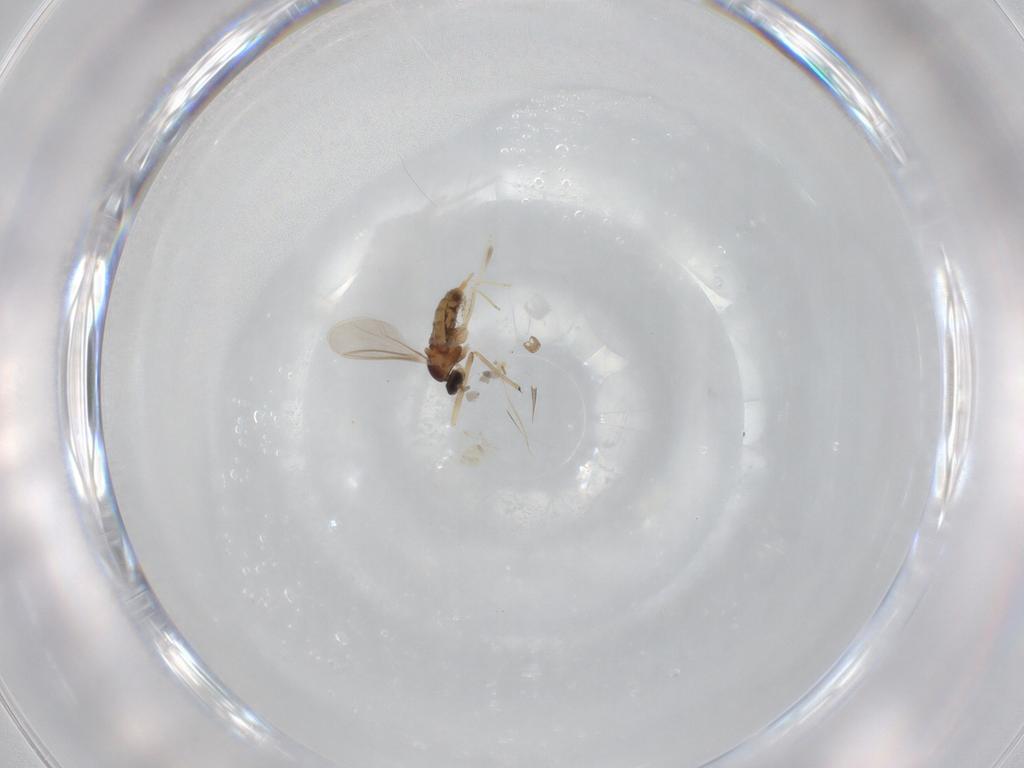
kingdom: Animalia
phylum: Arthropoda
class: Insecta
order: Diptera
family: Cecidomyiidae
